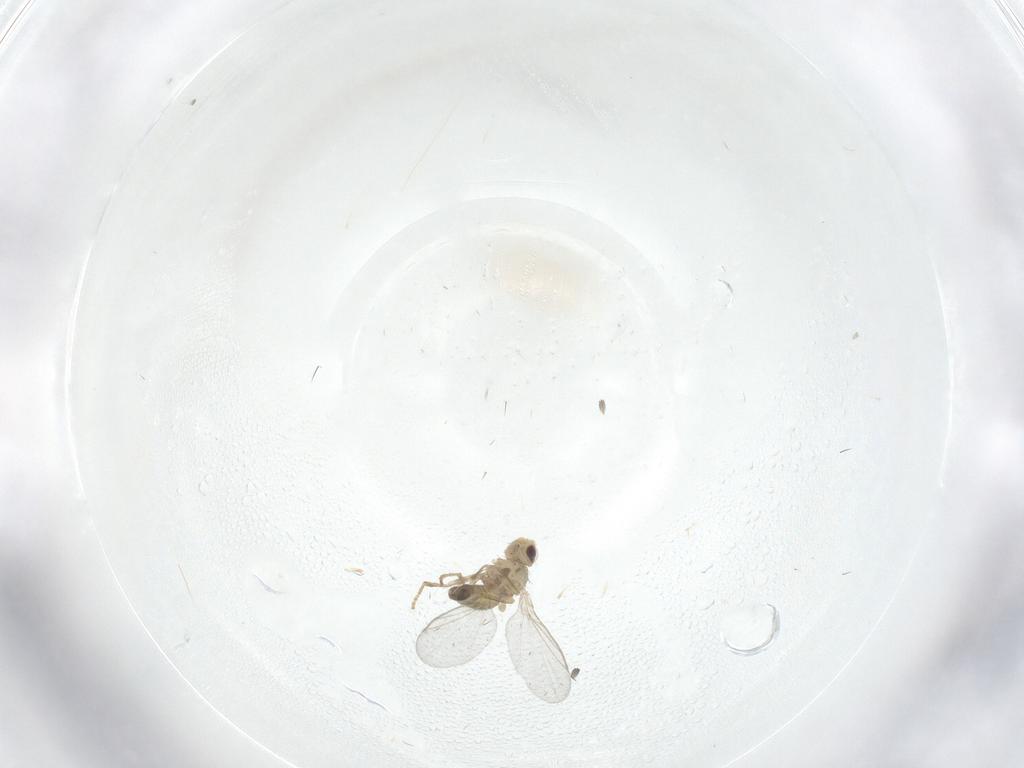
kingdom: Animalia
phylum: Arthropoda
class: Insecta
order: Diptera
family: Agromyzidae
